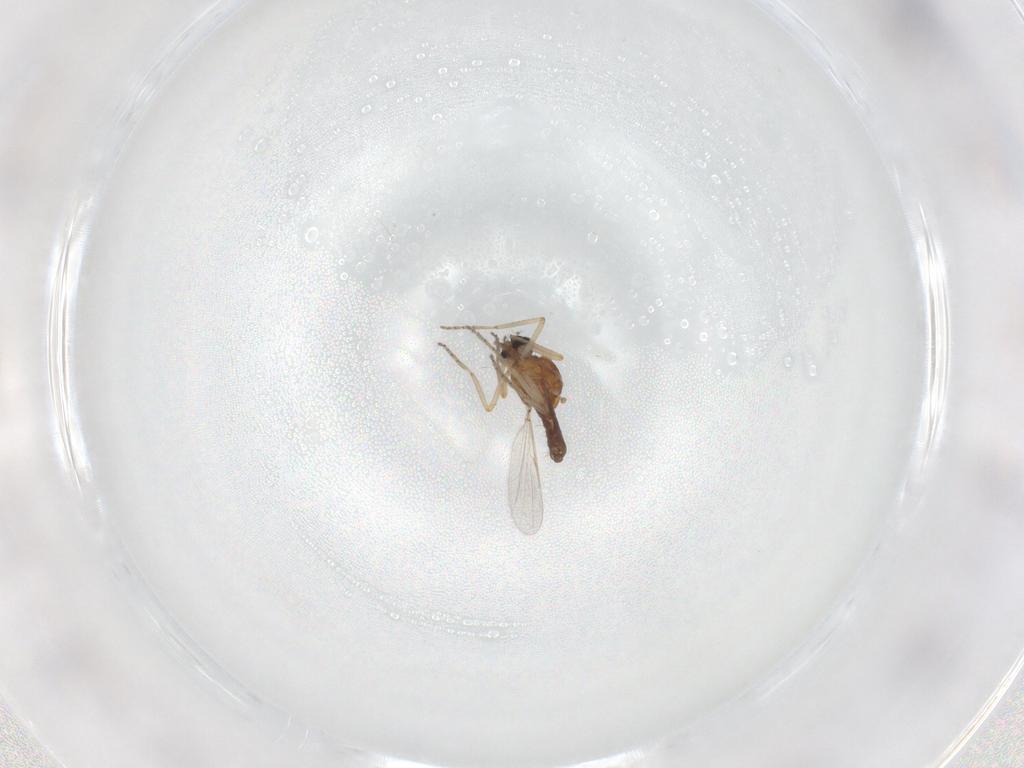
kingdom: Animalia
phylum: Arthropoda
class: Insecta
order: Diptera
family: Ceratopogonidae
